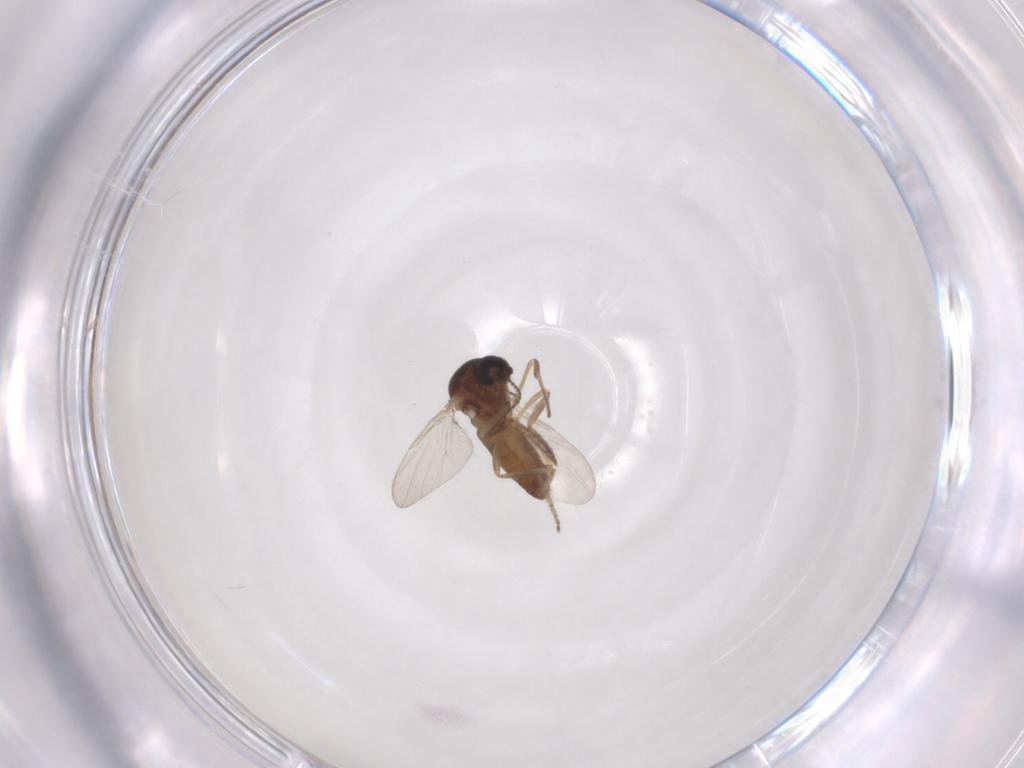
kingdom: Animalia
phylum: Arthropoda
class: Insecta
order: Diptera
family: Ceratopogonidae
